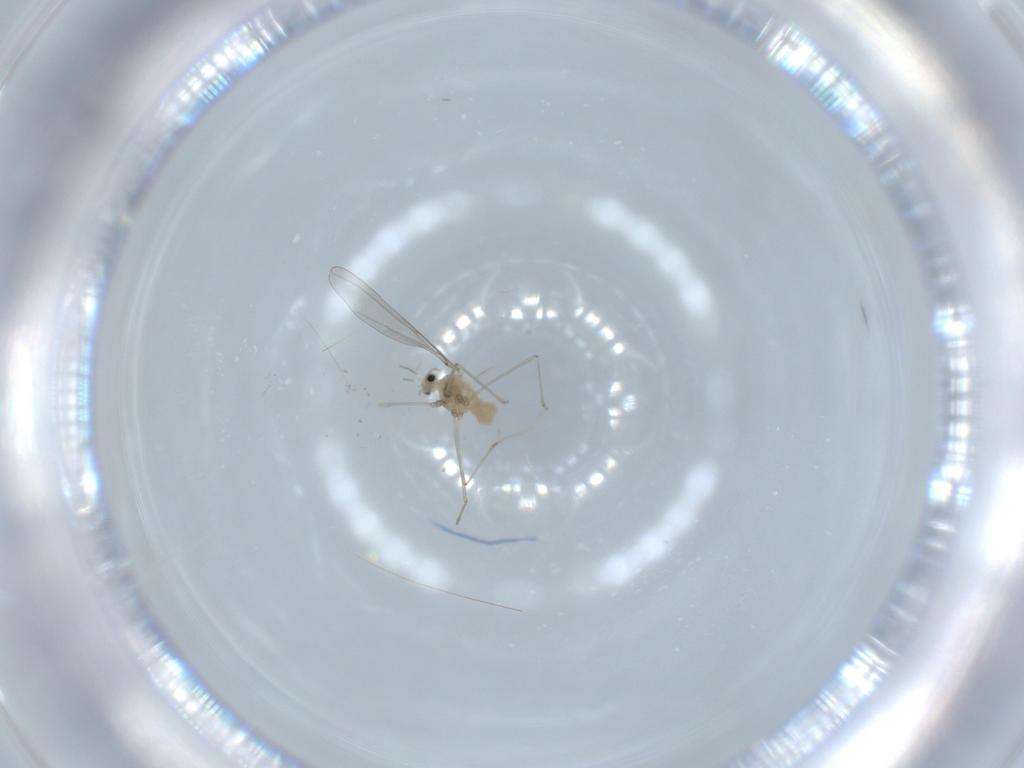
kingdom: Animalia
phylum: Arthropoda
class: Insecta
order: Diptera
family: Cecidomyiidae
